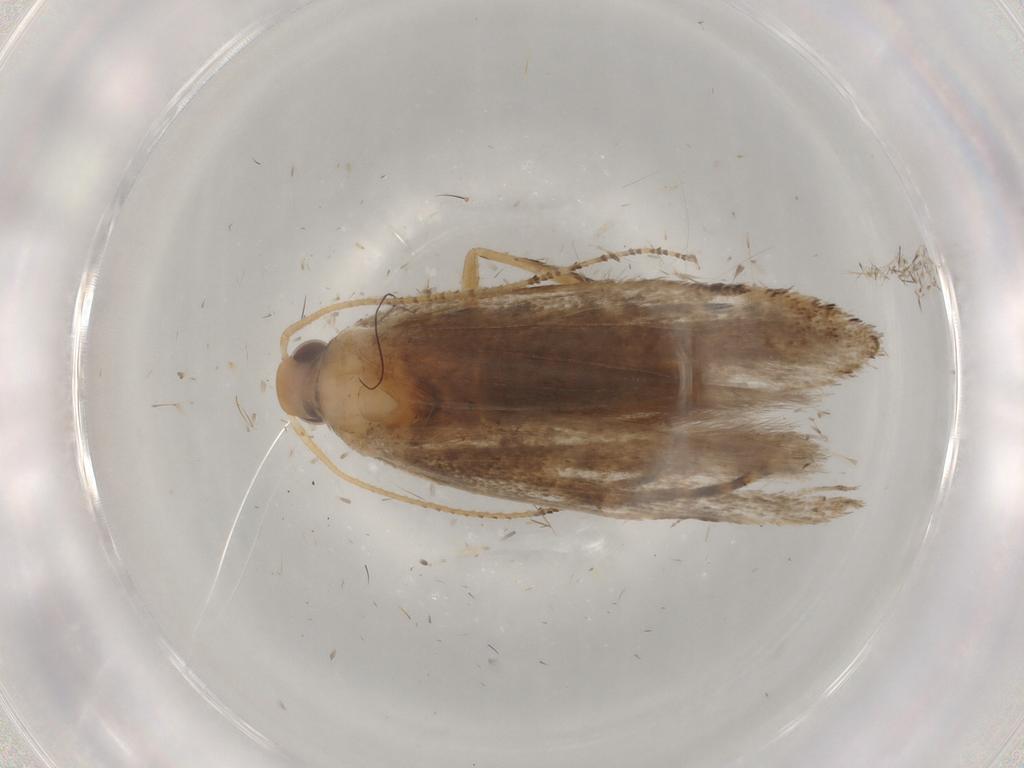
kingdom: Animalia
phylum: Arthropoda
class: Insecta
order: Lepidoptera
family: Gelechiidae
